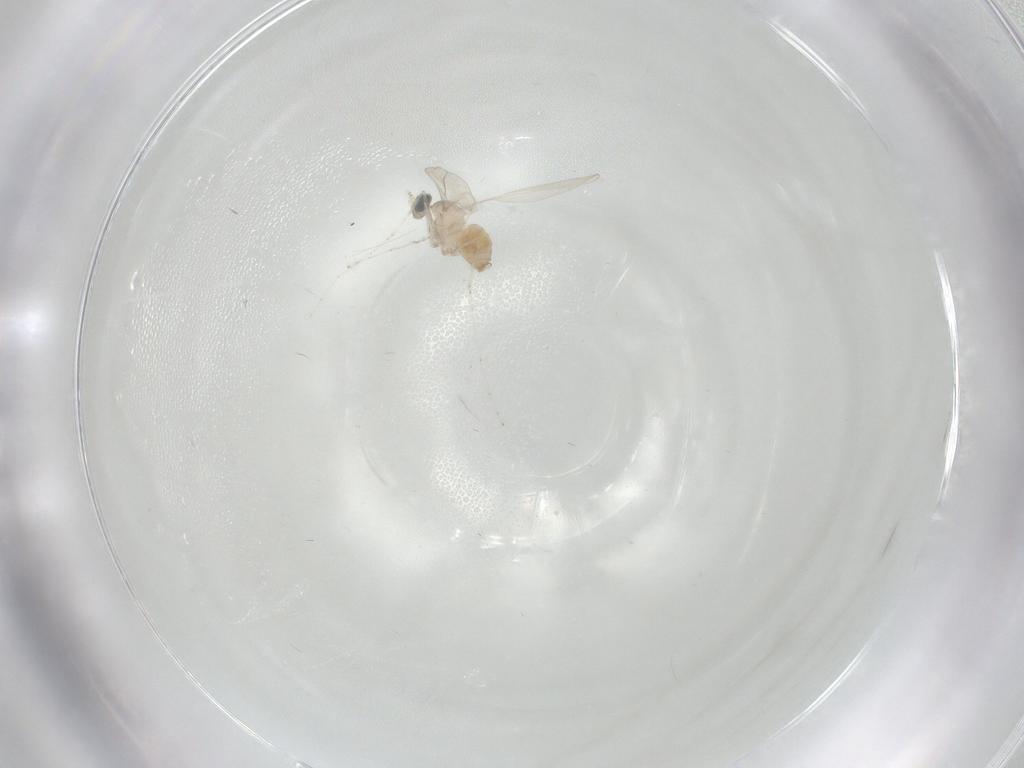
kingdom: Animalia
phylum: Arthropoda
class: Insecta
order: Diptera
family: Cecidomyiidae
